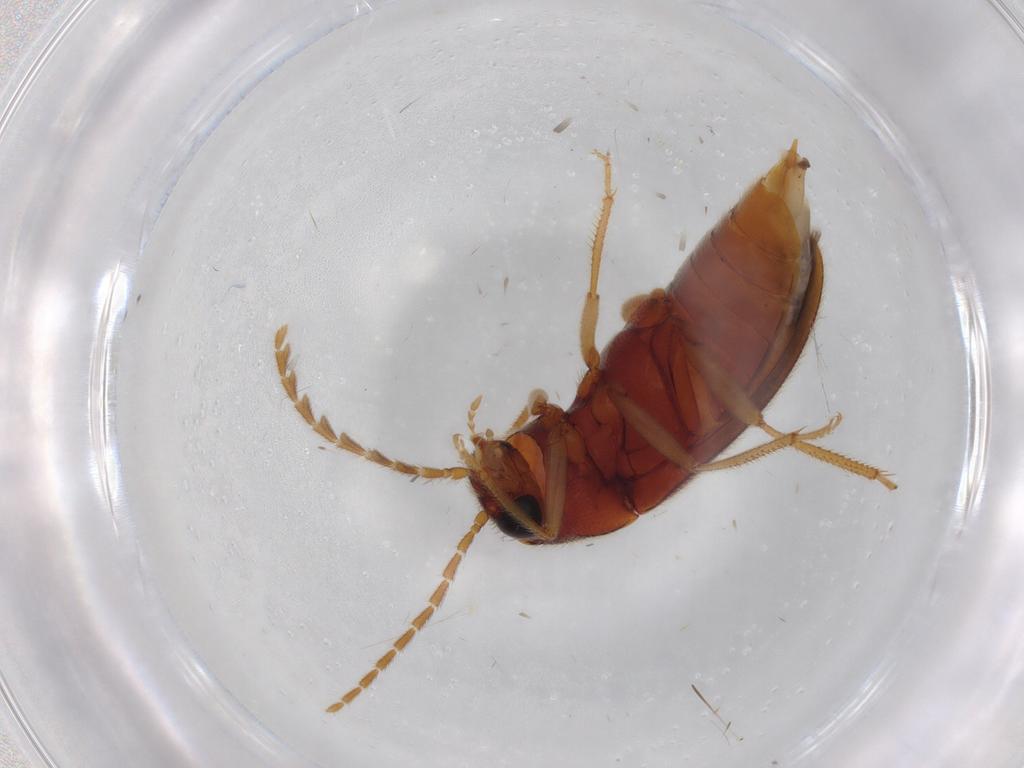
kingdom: Animalia
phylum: Arthropoda
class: Insecta
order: Coleoptera
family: Ptilodactylidae
